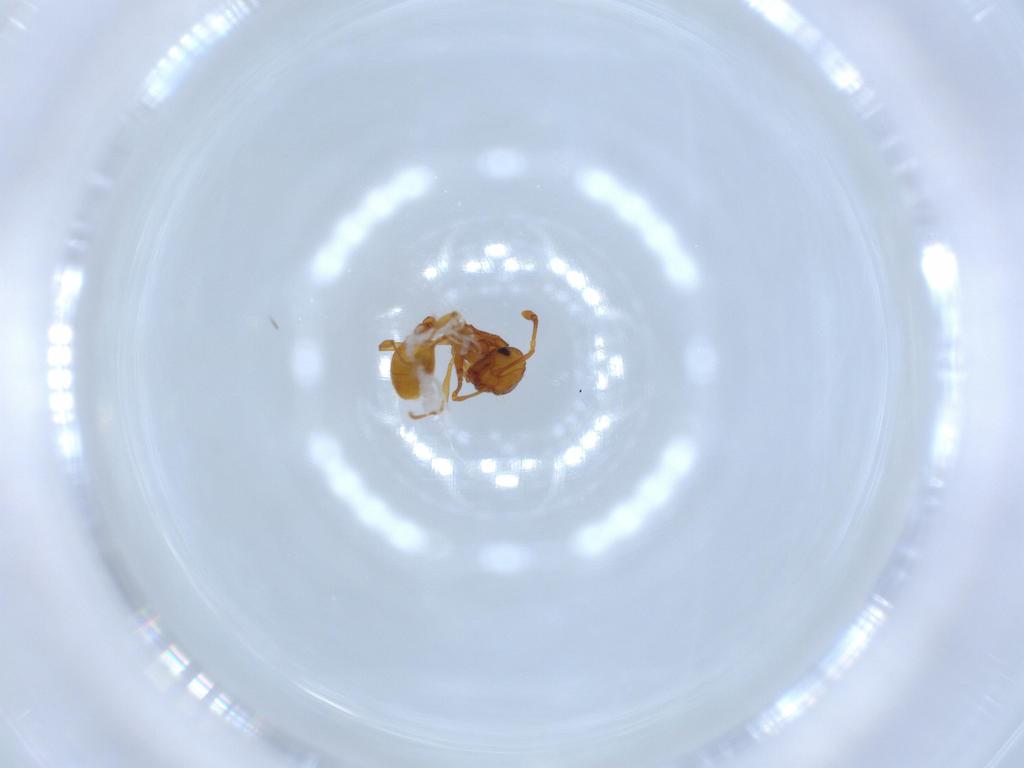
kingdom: Animalia
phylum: Arthropoda
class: Insecta
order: Hymenoptera
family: Formicidae
